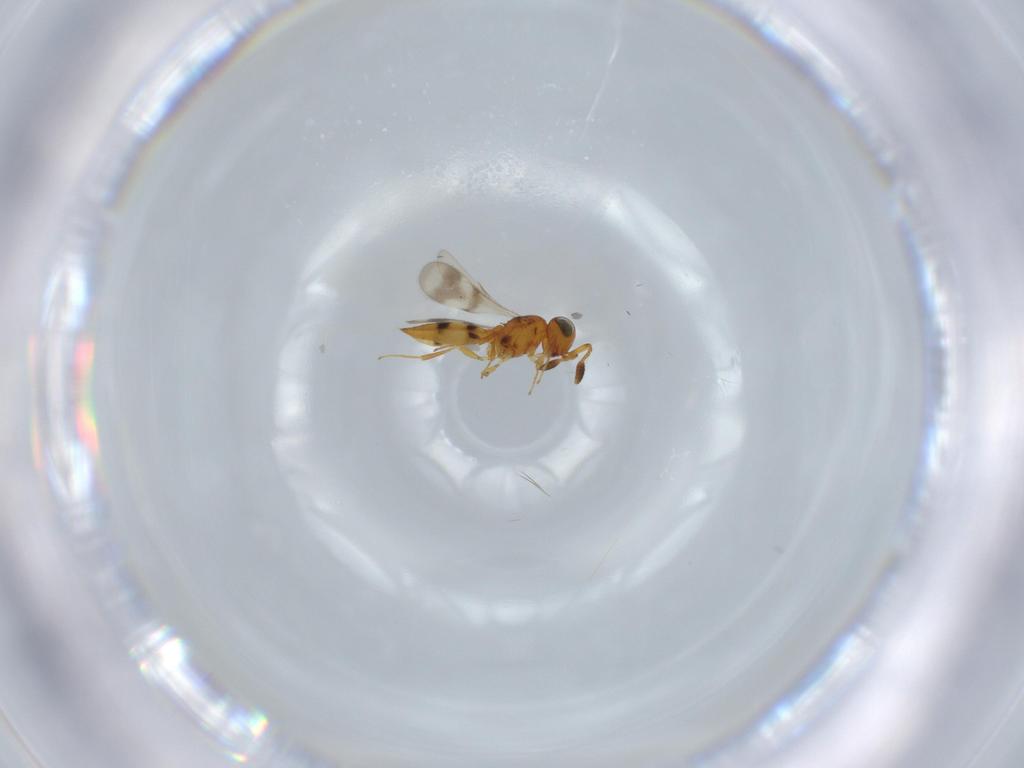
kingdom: Animalia
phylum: Arthropoda
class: Insecta
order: Hymenoptera
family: Scelionidae
